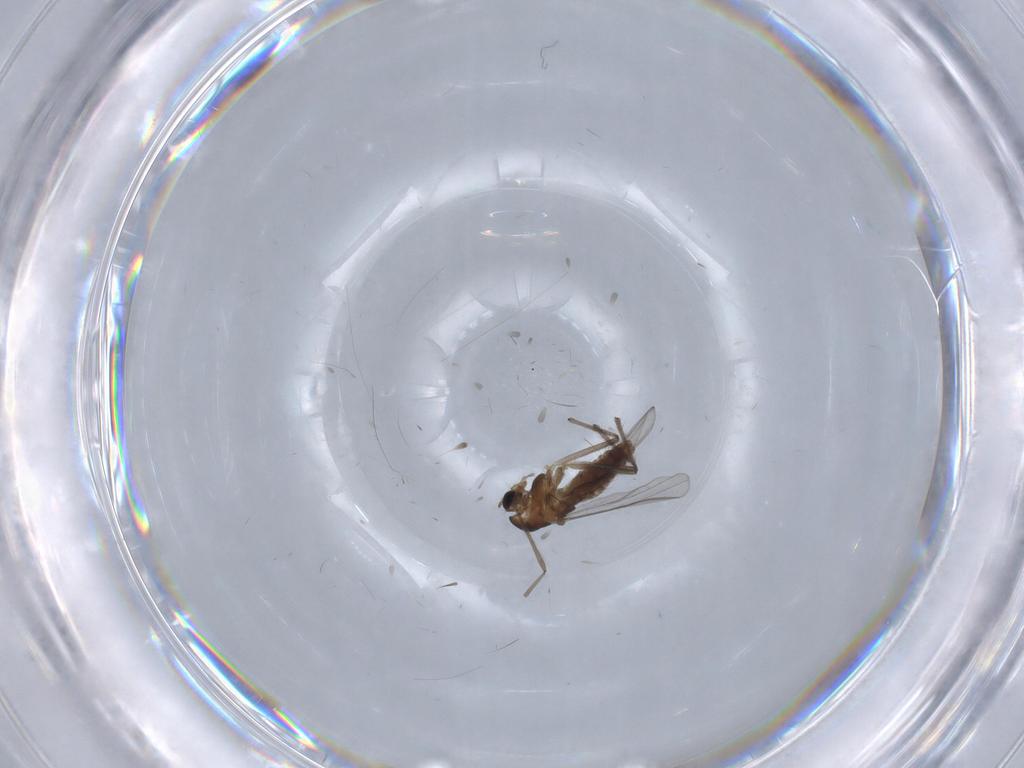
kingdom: Animalia
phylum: Arthropoda
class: Insecta
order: Diptera
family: Chironomidae
